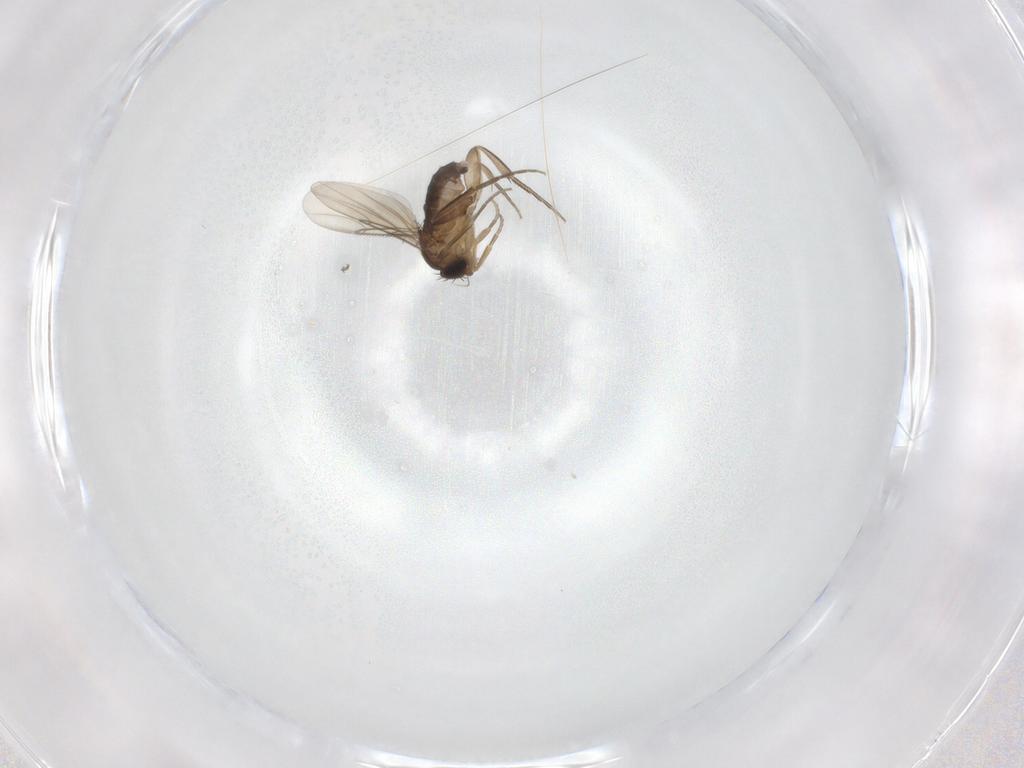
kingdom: Animalia
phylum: Arthropoda
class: Insecta
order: Diptera
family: Phoridae
